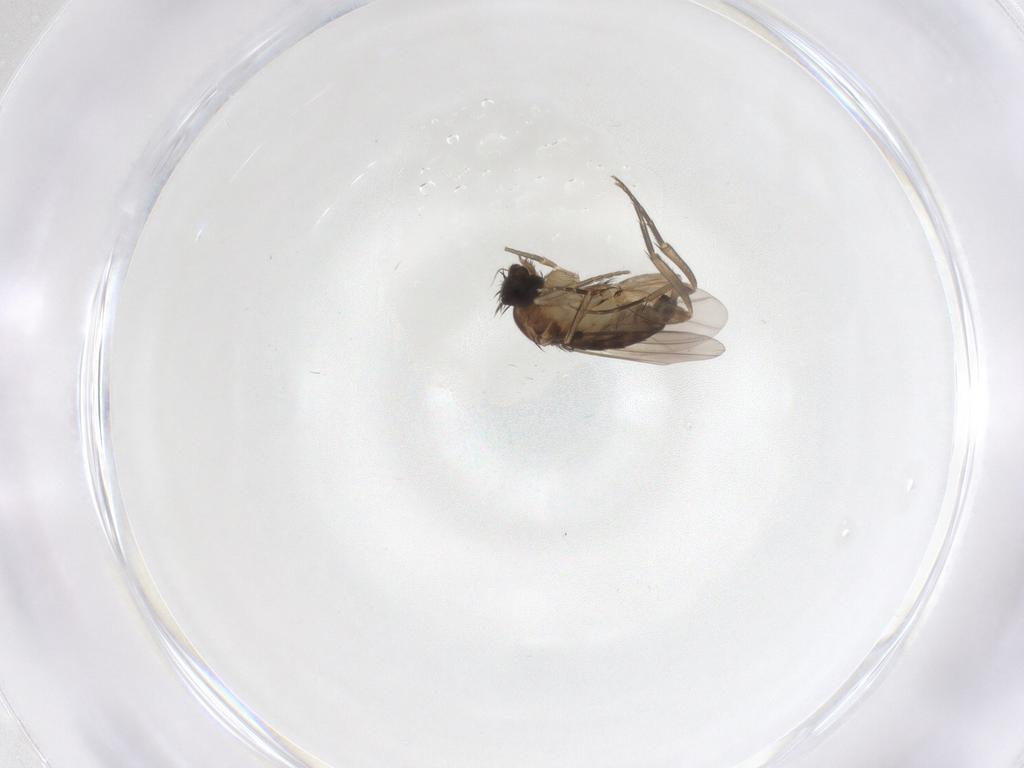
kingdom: Animalia
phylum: Arthropoda
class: Insecta
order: Diptera
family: Phoridae
